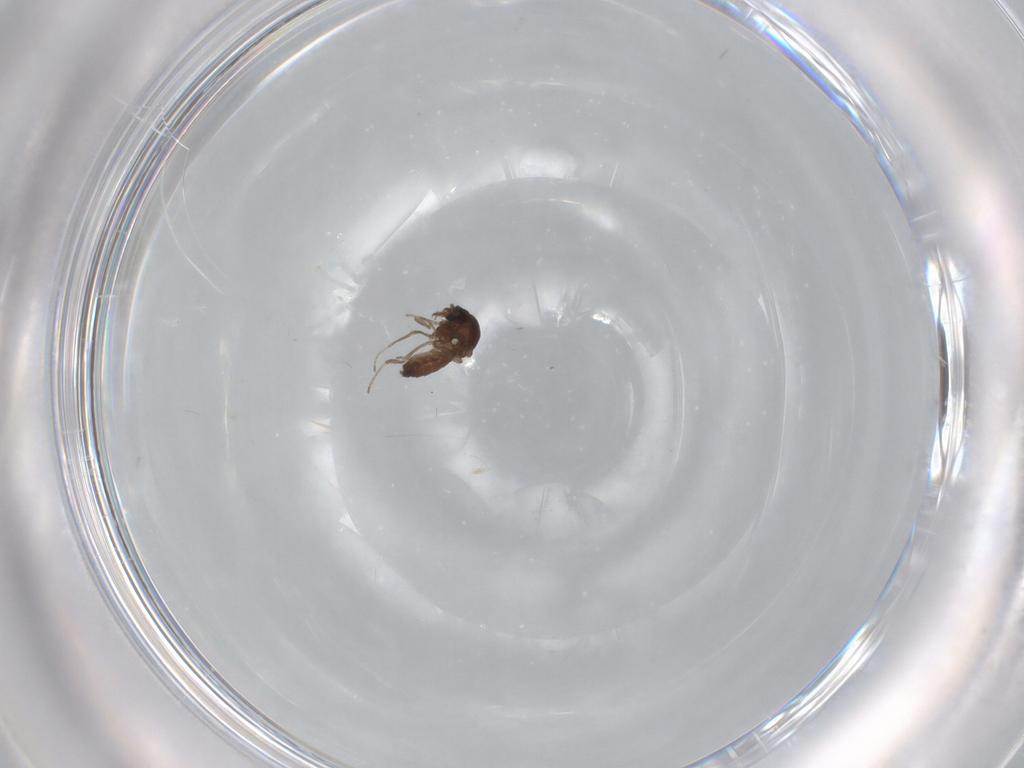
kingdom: Animalia
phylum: Arthropoda
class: Insecta
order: Diptera
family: Ceratopogonidae
